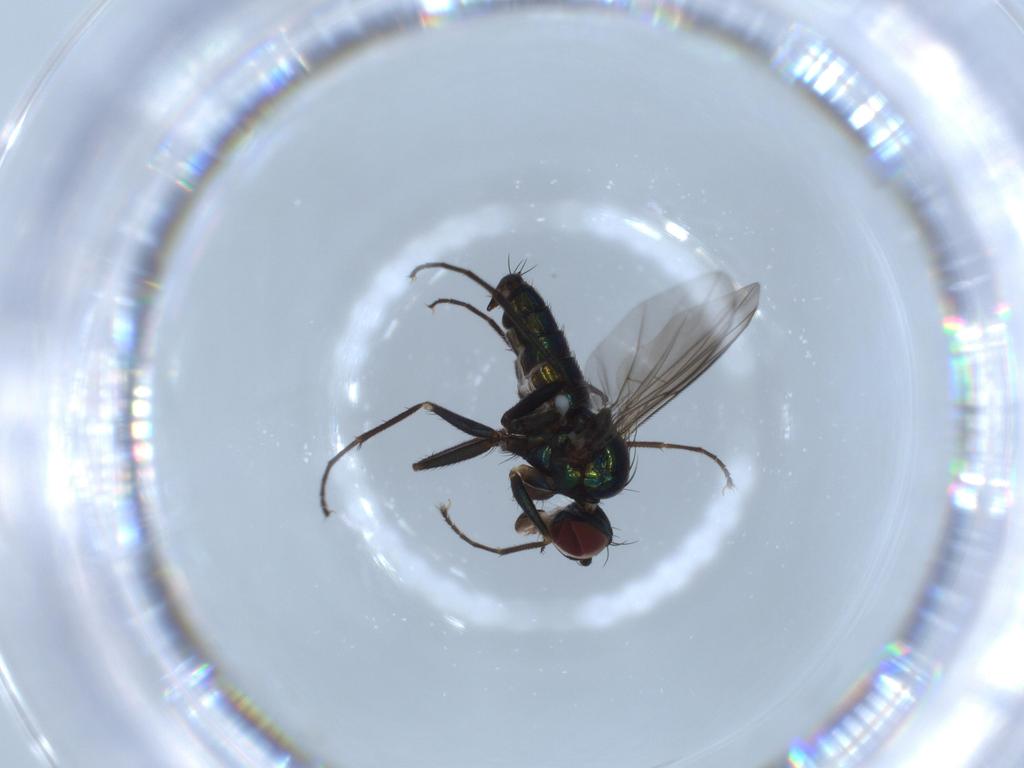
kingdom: Animalia
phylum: Arthropoda
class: Insecta
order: Diptera
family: Dolichopodidae
